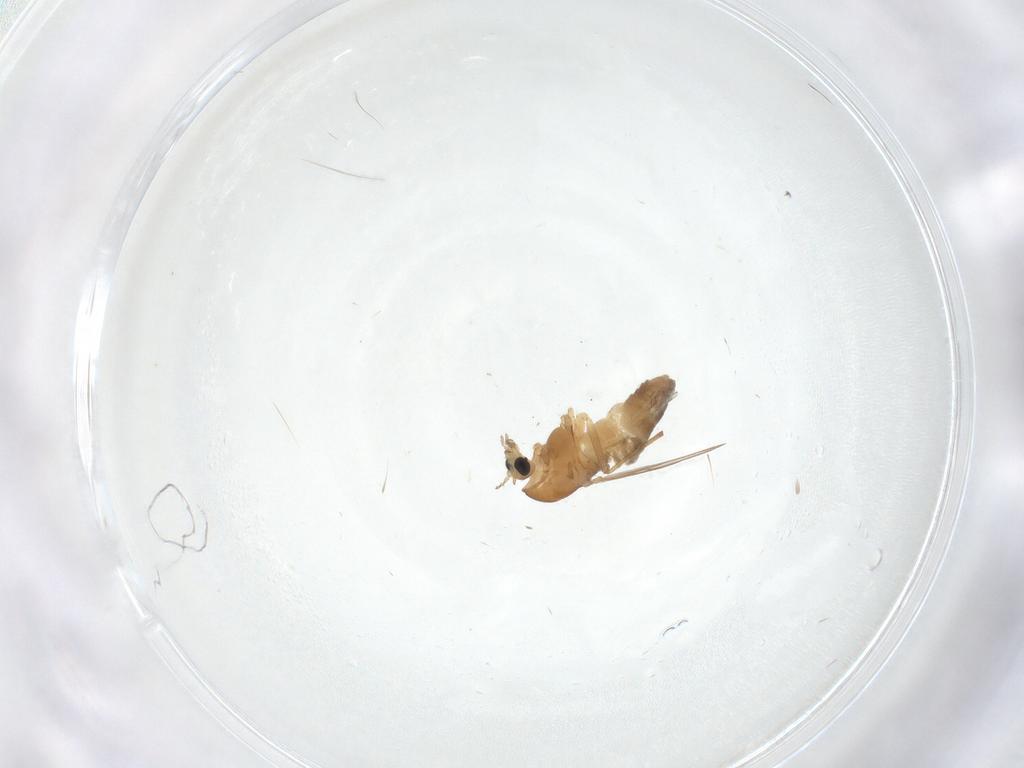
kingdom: Animalia
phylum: Arthropoda
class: Insecta
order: Diptera
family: Chironomidae
